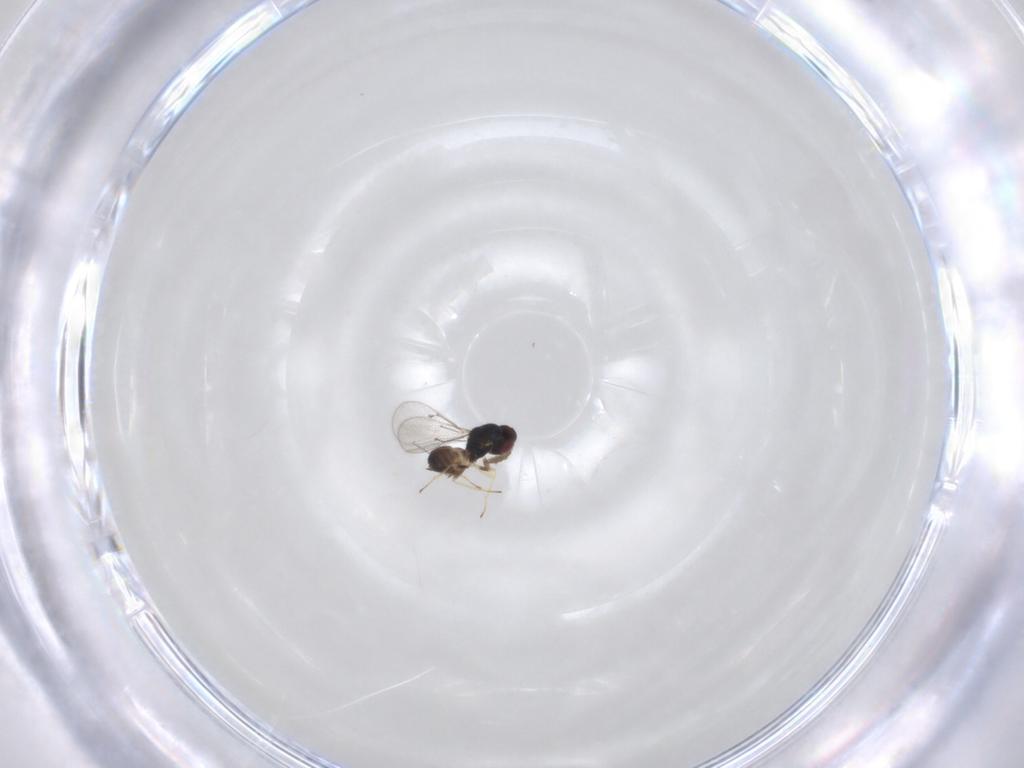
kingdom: Animalia
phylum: Arthropoda
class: Insecta
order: Hymenoptera
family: Eulophidae
